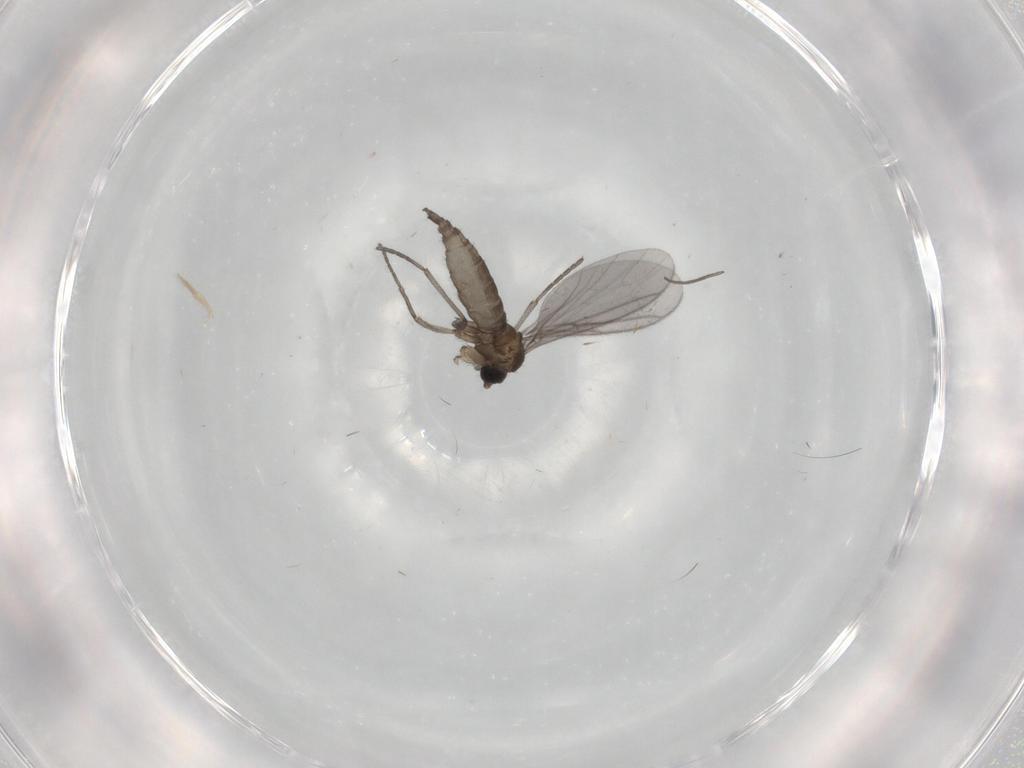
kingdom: Animalia
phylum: Arthropoda
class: Insecta
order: Diptera
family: Sciaridae
